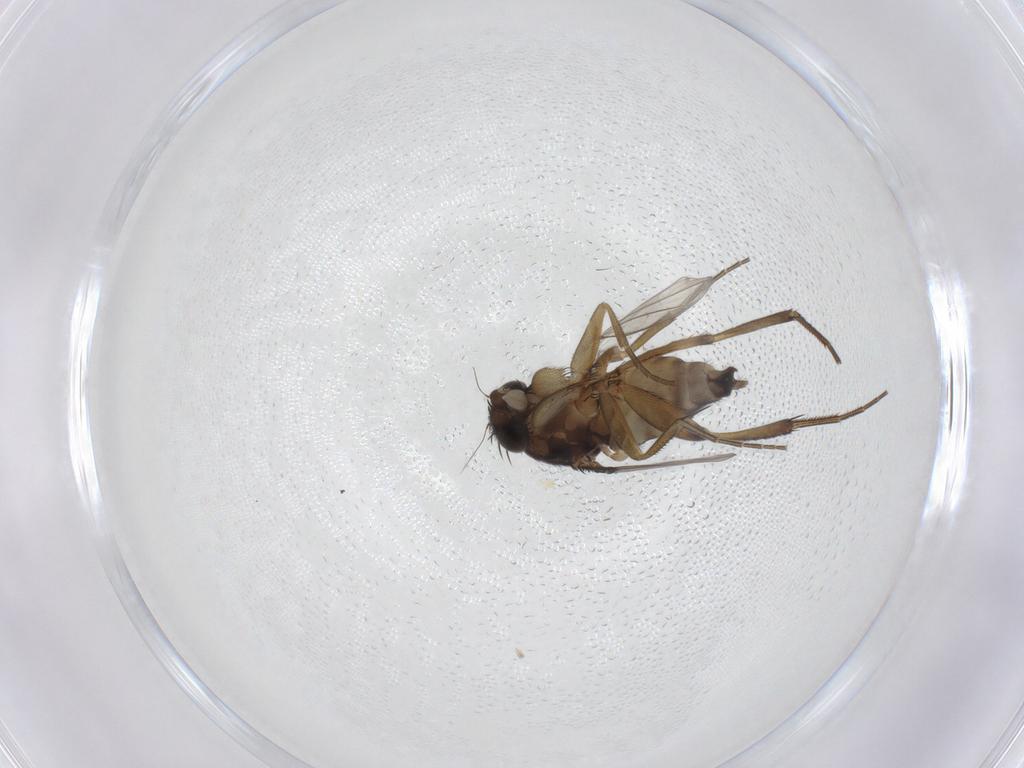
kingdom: Animalia
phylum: Arthropoda
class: Insecta
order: Diptera
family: Phoridae
